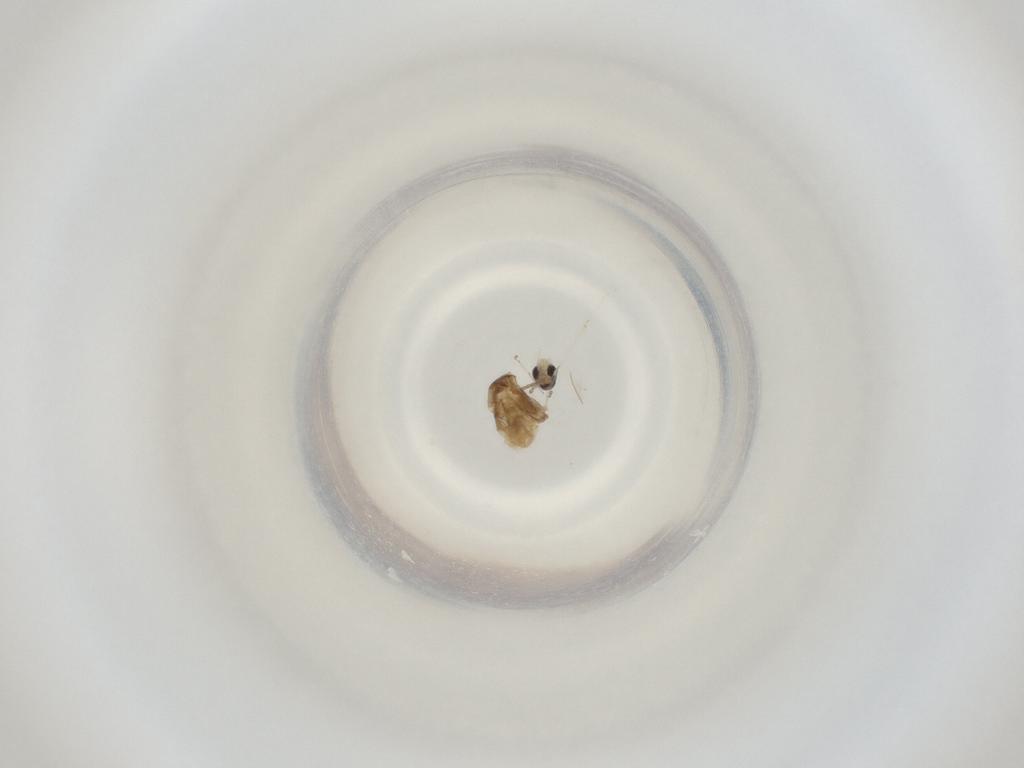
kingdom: Animalia
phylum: Arthropoda
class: Insecta
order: Diptera
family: Cecidomyiidae
